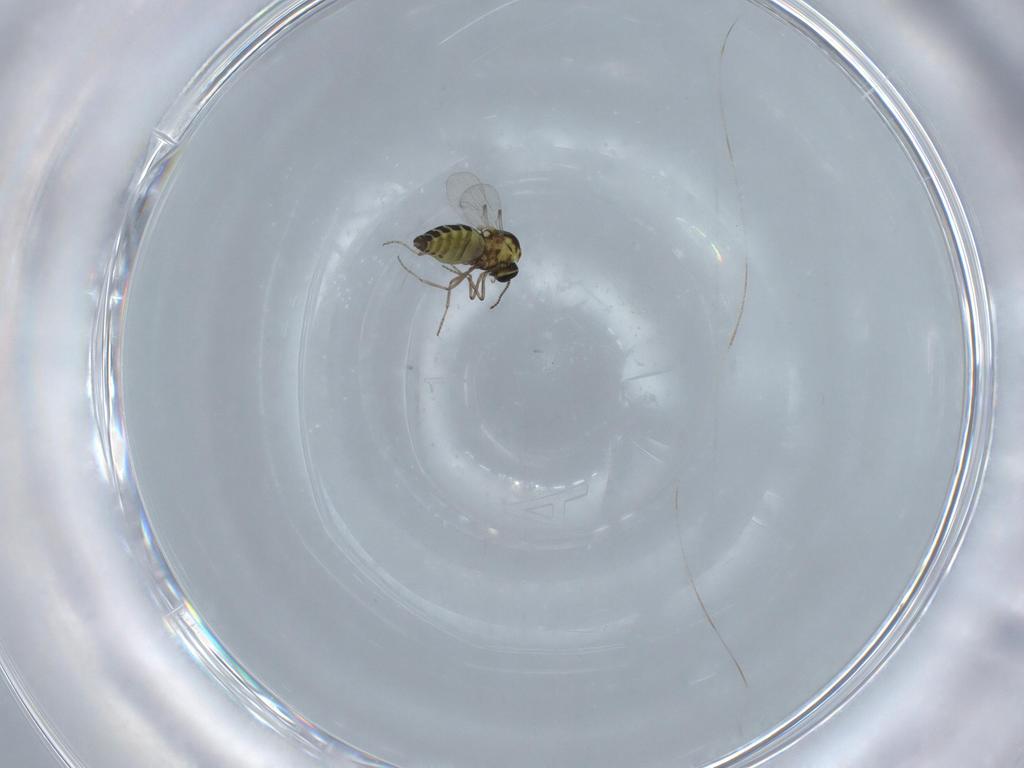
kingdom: Animalia
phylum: Arthropoda
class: Insecta
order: Diptera
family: Ceratopogonidae
